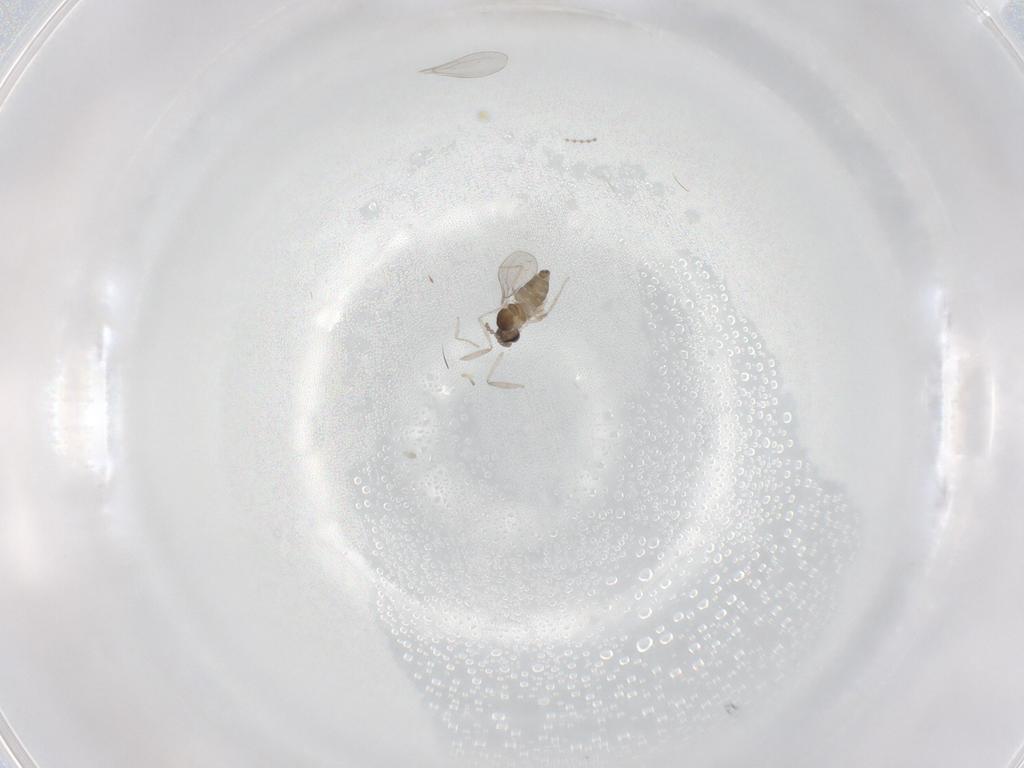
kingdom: Animalia
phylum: Arthropoda
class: Insecta
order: Diptera
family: Cecidomyiidae
